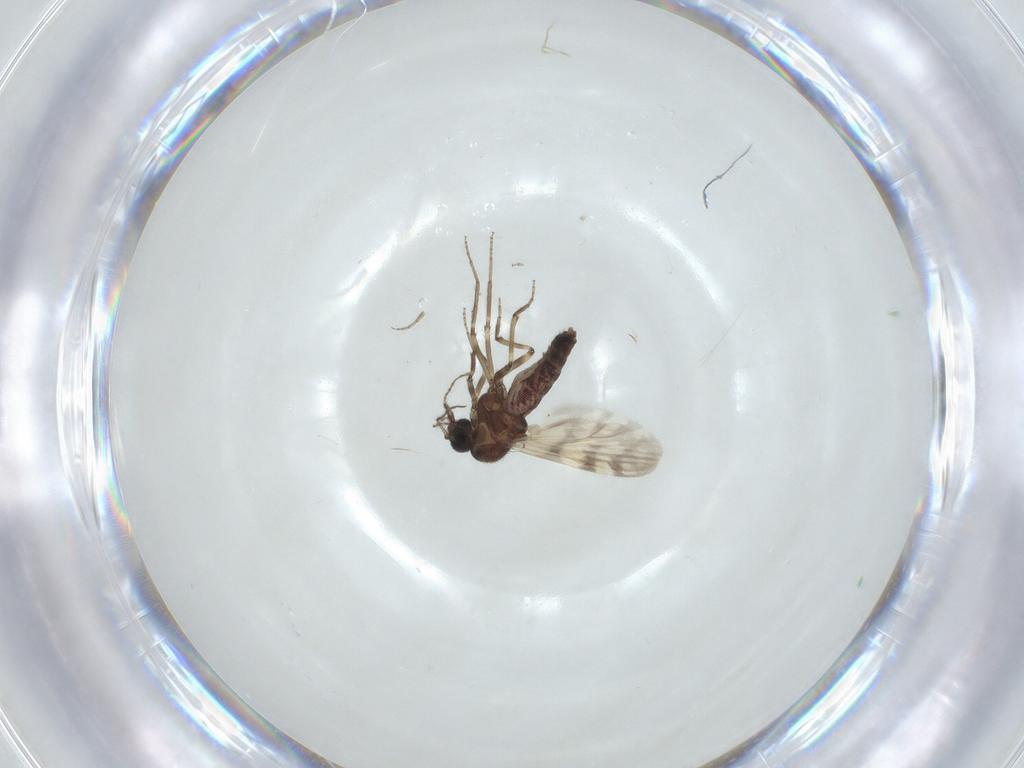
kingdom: Animalia
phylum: Arthropoda
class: Insecta
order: Diptera
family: Ceratopogonidae
